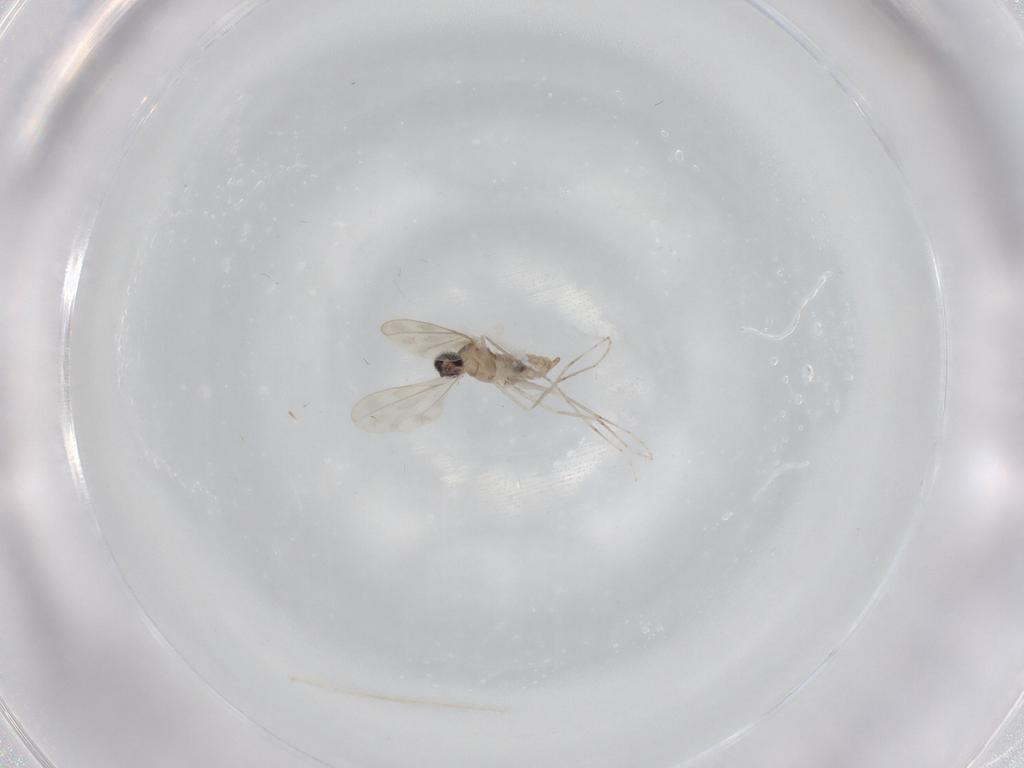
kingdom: Animalia
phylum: Arthropoda
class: Insecta
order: Diptera
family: Cecidomyiidae
